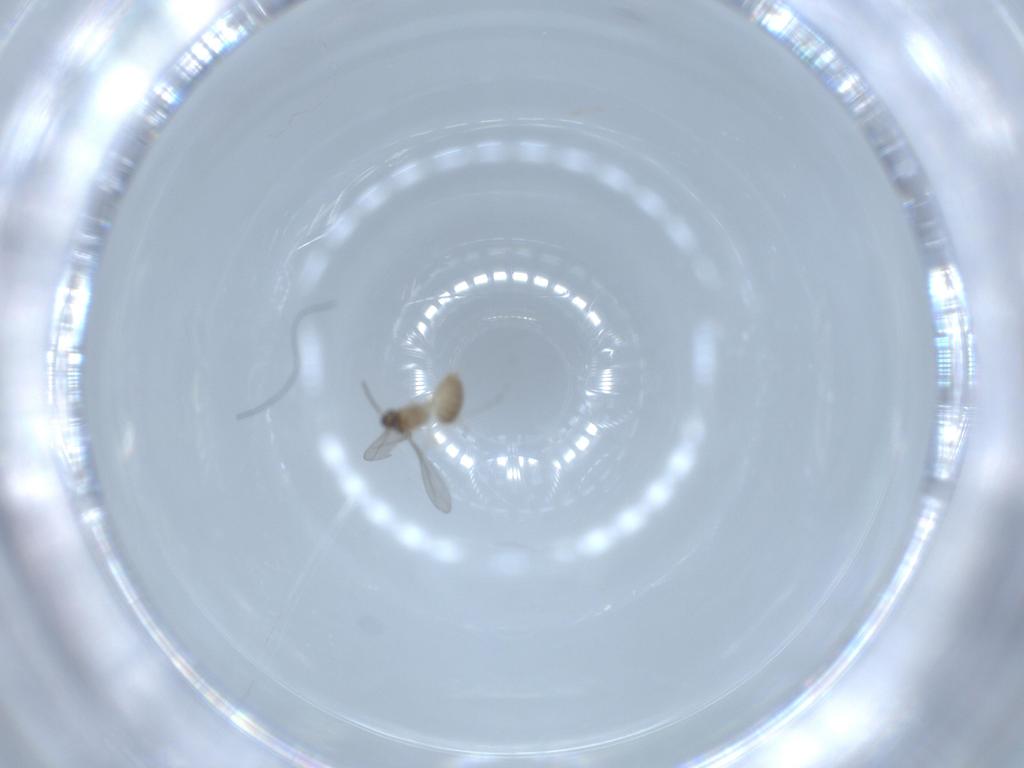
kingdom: Animalia
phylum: Arthropoda
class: Insecta
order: Diptera
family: Cecidomyiidae
